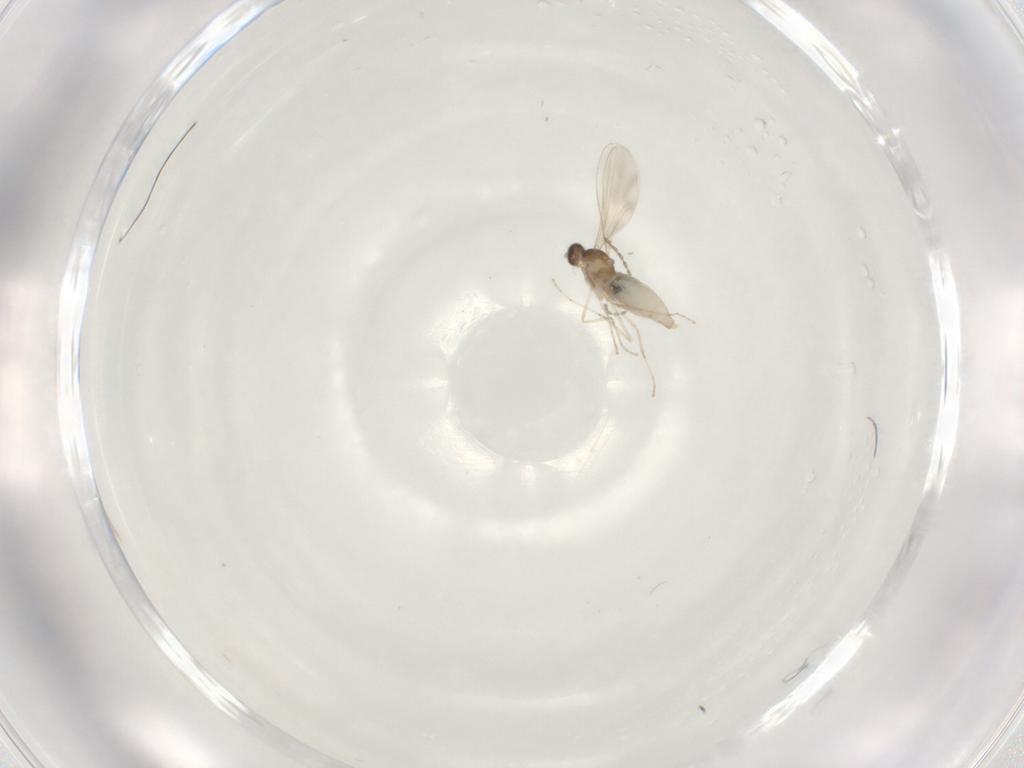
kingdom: Animalia
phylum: Arthropoda
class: Insecta
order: Diptera
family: Cecidomyiidae
